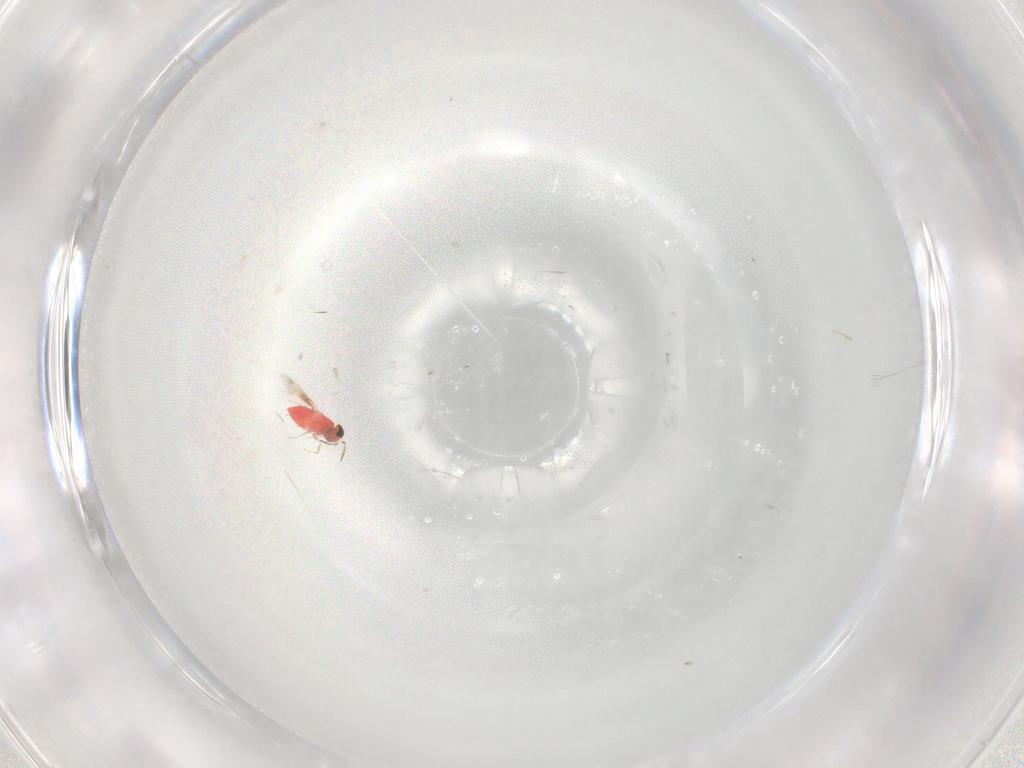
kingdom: Animalia
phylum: Arthropoda
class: Insecta
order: Hymenoptera
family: Trichogrammatidae
